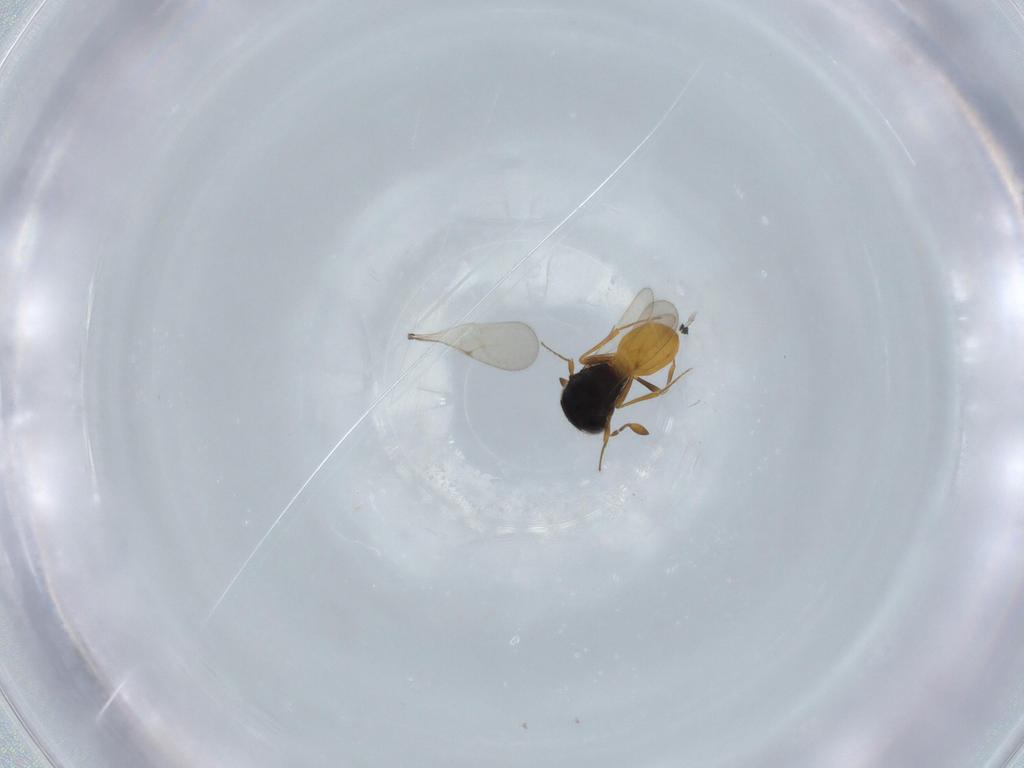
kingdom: Animalia
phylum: Arthropoda
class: Insecta
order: Hymenoptera
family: Scelionidae
